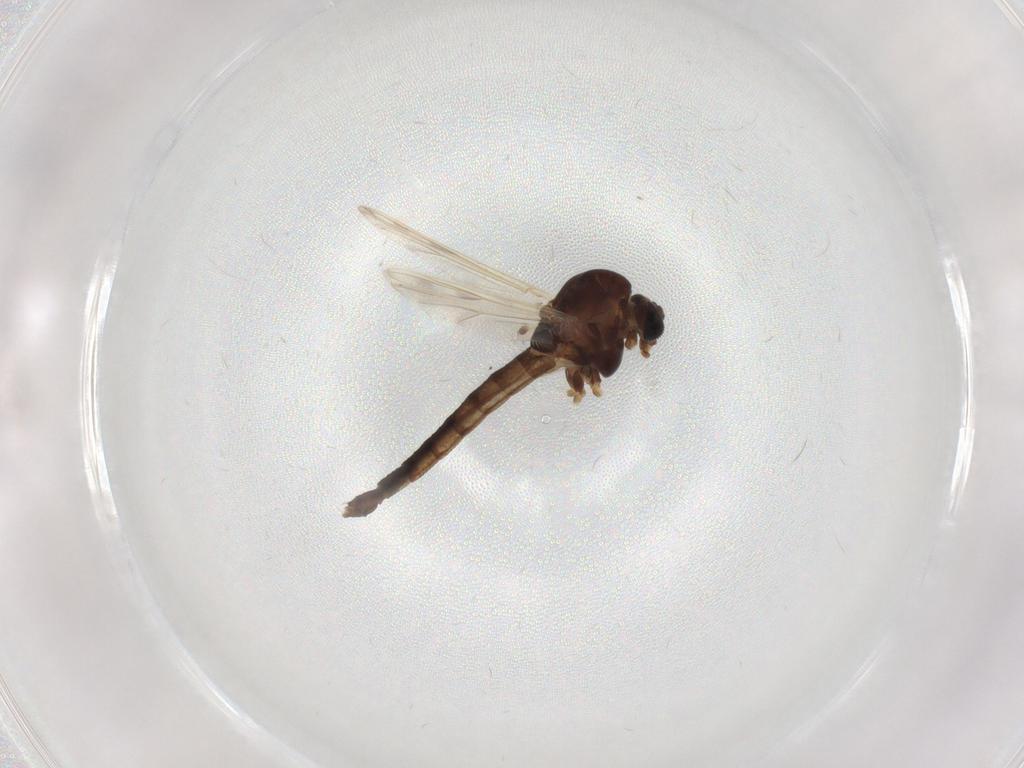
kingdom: Animalia
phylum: Arthropoda
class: Insecta
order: Diptera
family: Chironomidae
